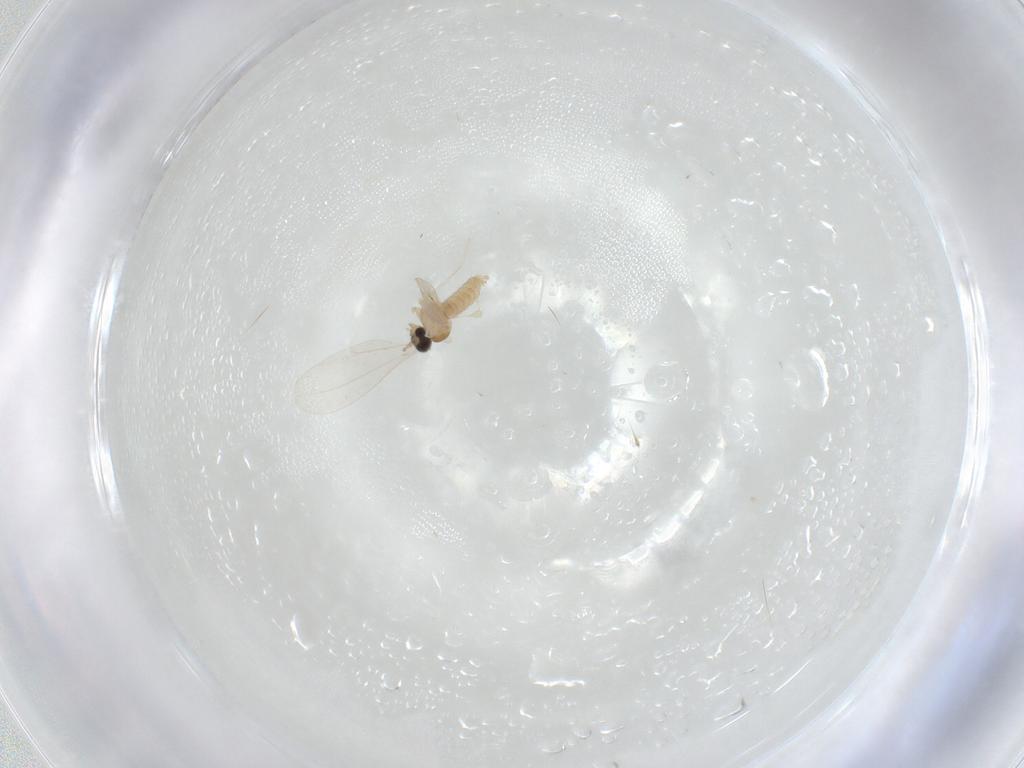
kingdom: Animalia
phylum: Arthropoda
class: Insecta
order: Diptera
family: Cecidomyiidae
